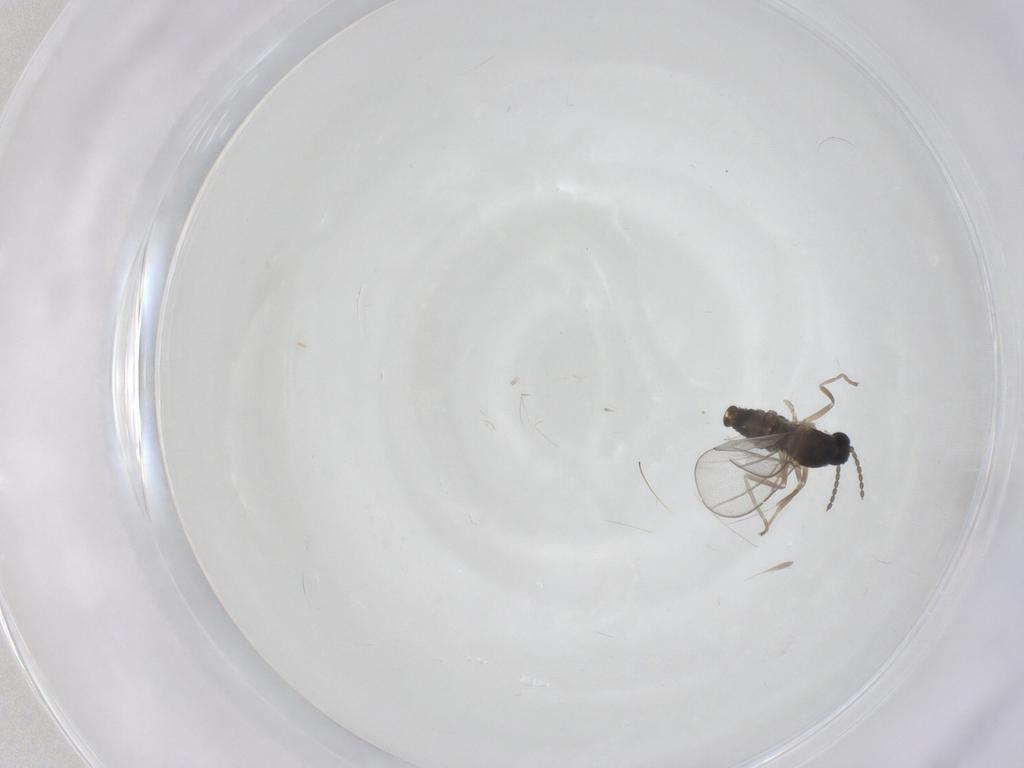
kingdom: Animalia
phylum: Arthropoda
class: Insecta
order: Diptera
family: Cecidomyiidae
